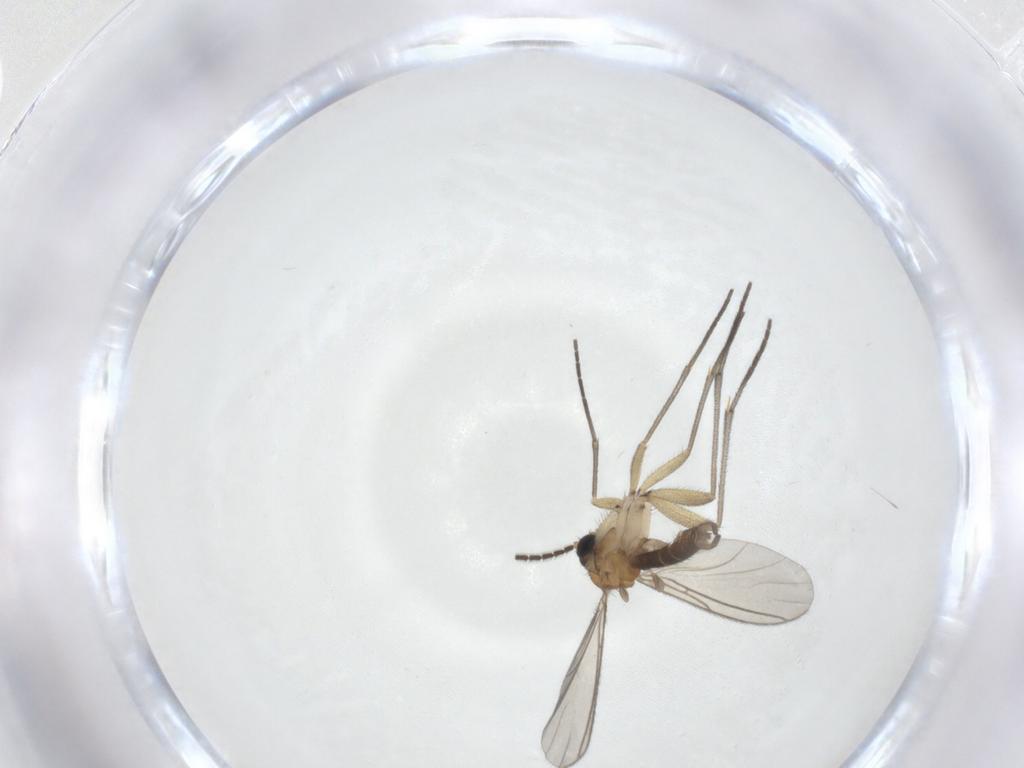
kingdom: Animalia
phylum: Arthropoda
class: Insecta
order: Diptera
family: Sciaridae
